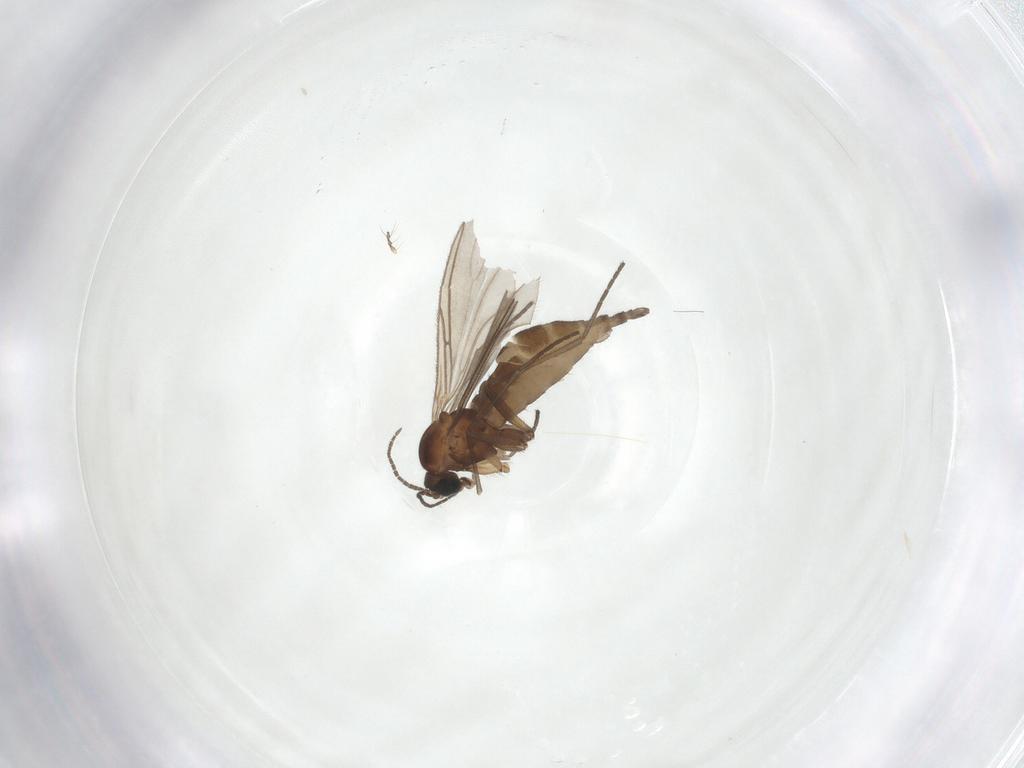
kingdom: Animalia
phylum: Arthropoda
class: Insecta
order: Diptera
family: Sciaridae
